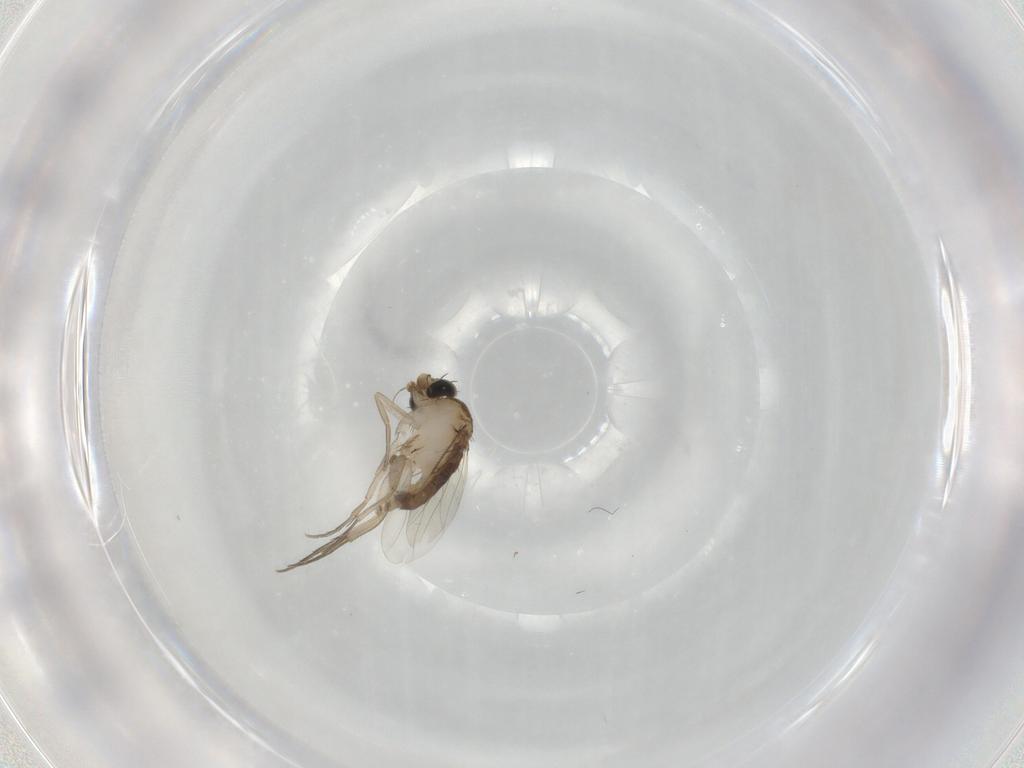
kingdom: Animalia
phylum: Arthropoda
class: Insecta
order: Diptera
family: Phoridae
